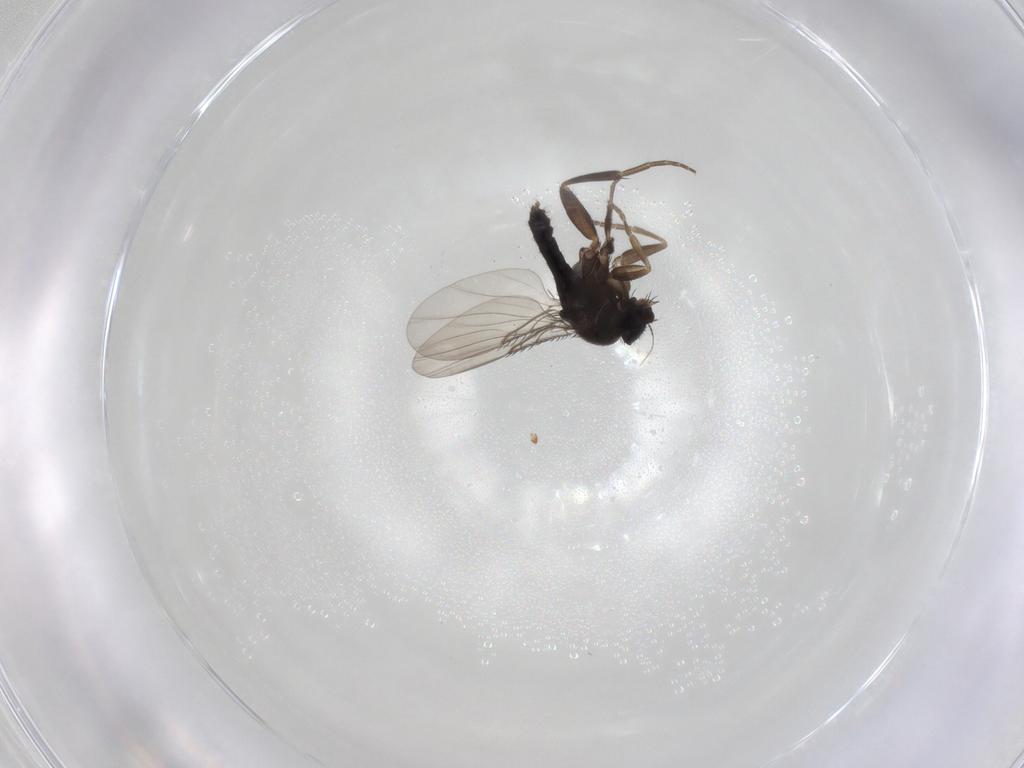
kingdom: Animalia
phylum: Arthropoda
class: Insecta
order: Diptera
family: Phoridae
